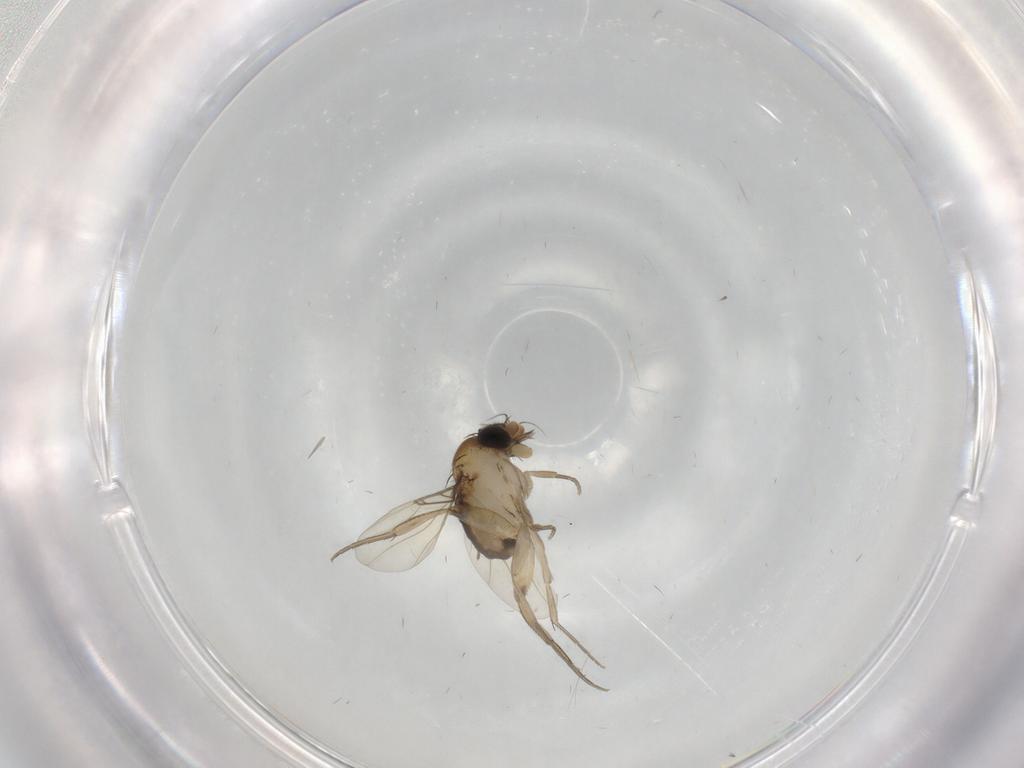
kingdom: Animalia
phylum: Arthropoda
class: Insecta
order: Diptera
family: Phoridae
